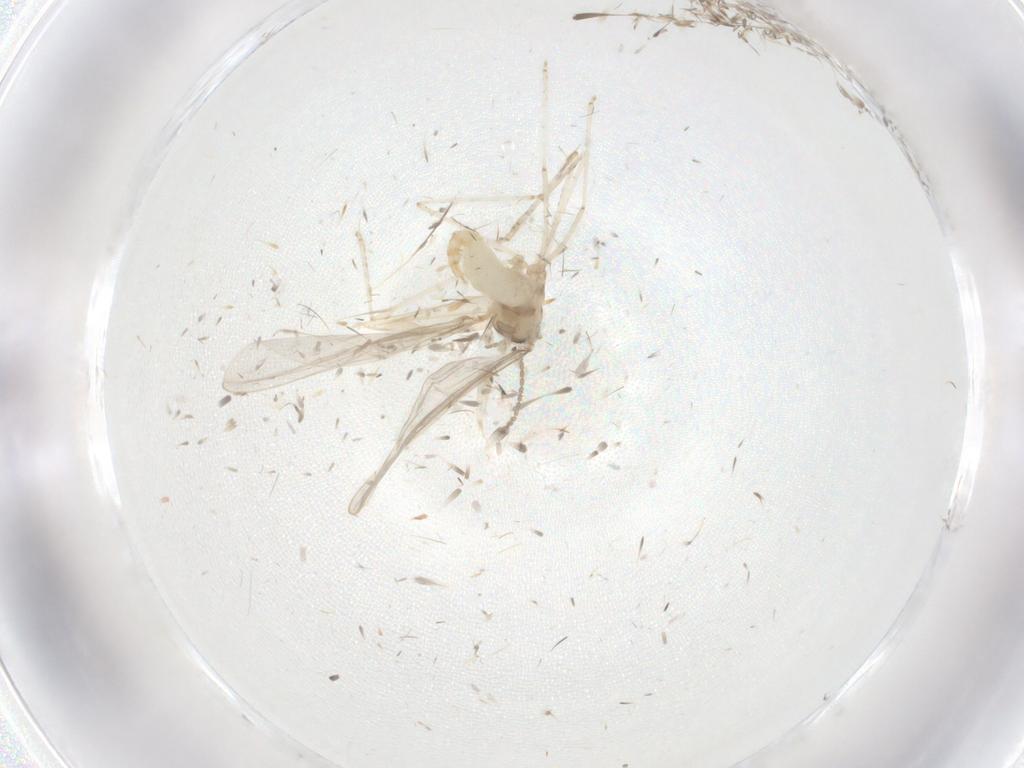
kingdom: Animalia
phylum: Arthropoda
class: Insecta
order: Diptera
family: Cecidomyiidae
